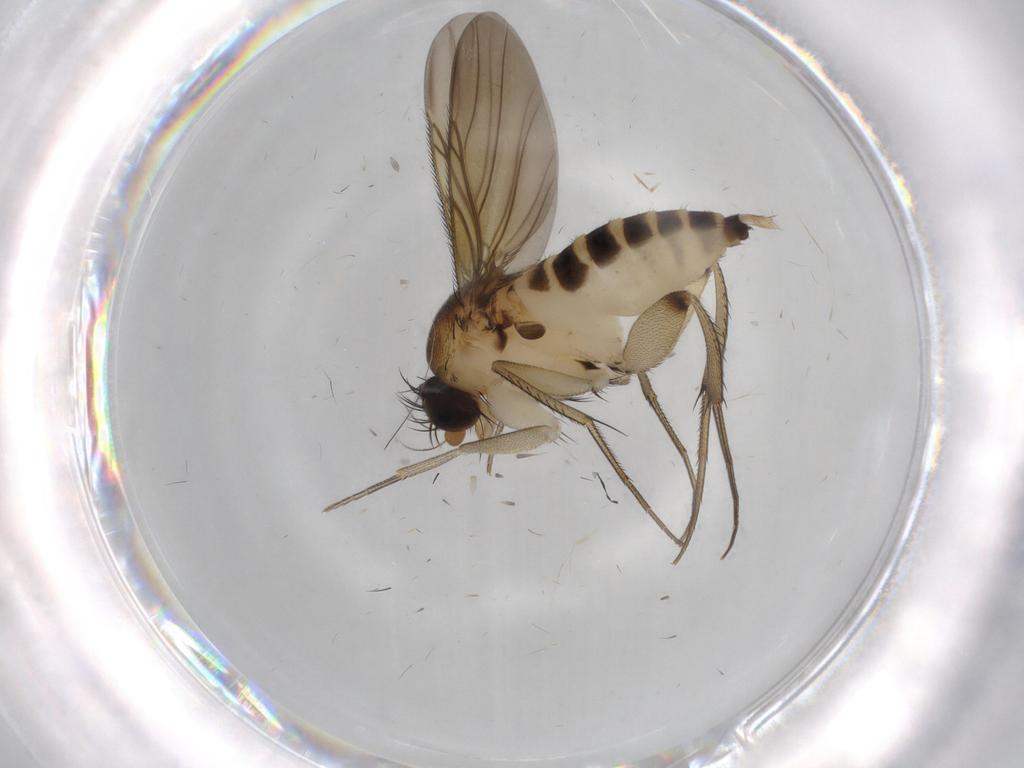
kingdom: Animalia
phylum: Arthropoda
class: Insecta
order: Diptera
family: Phoridae
